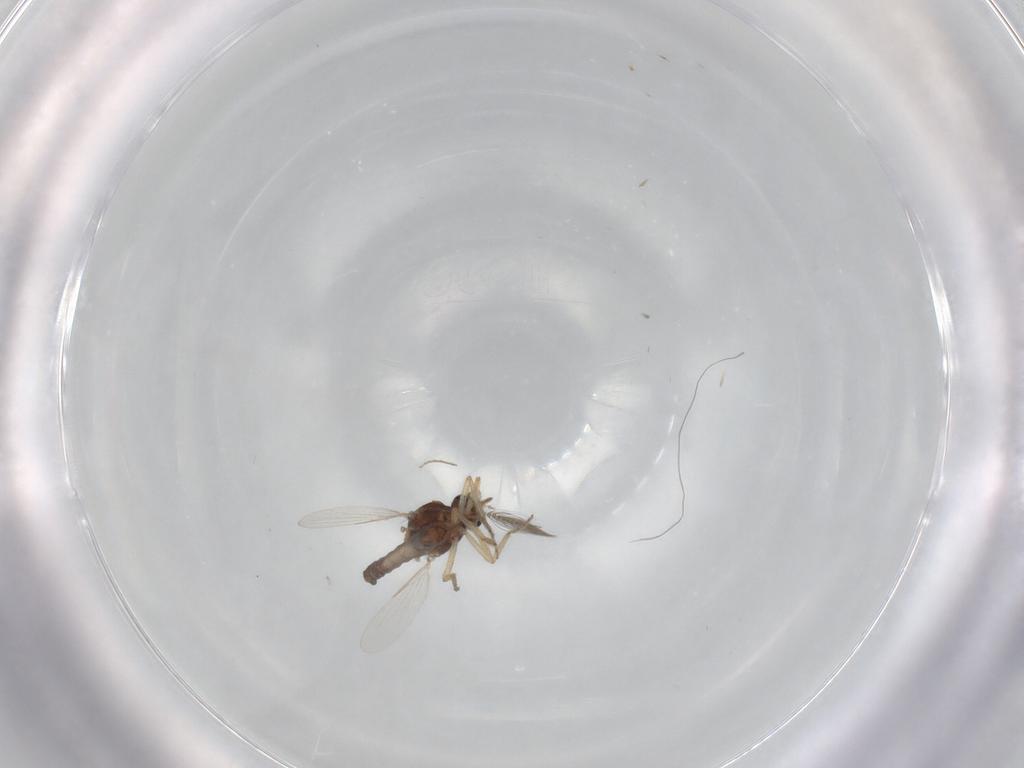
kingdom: Animalia
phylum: Arthropoda
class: Insecta
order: Diptera
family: Ceratopogonidae
